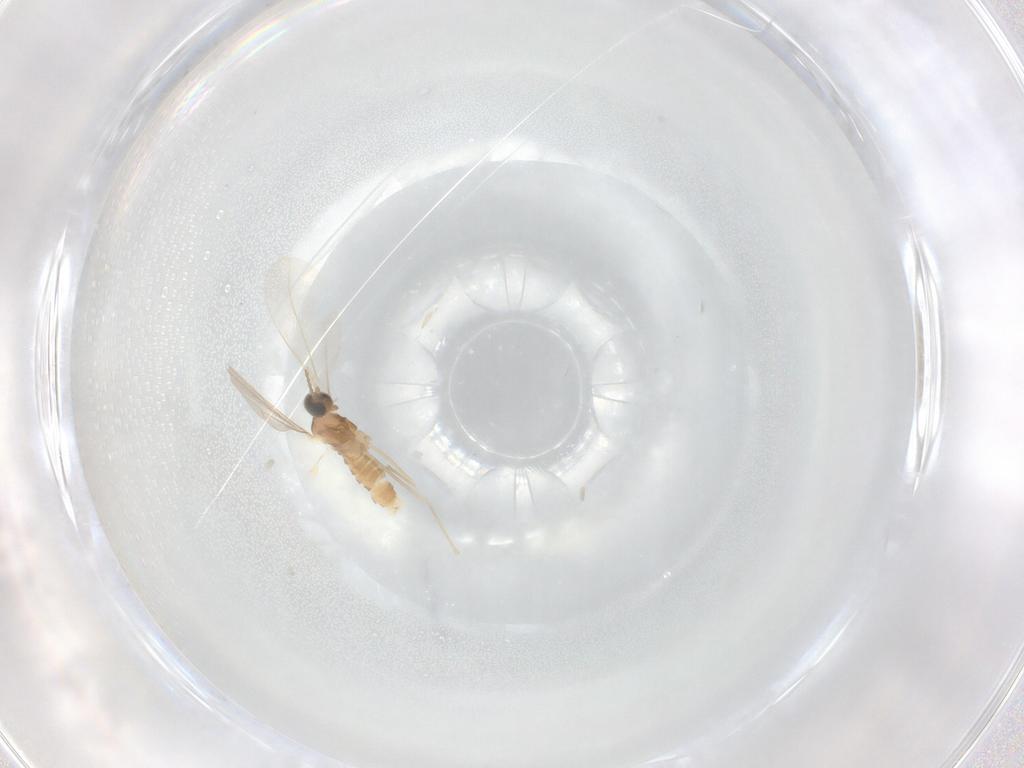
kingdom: Animalia
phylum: Arthropoda
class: Insecta
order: Diptera
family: Cecidomyiidae
